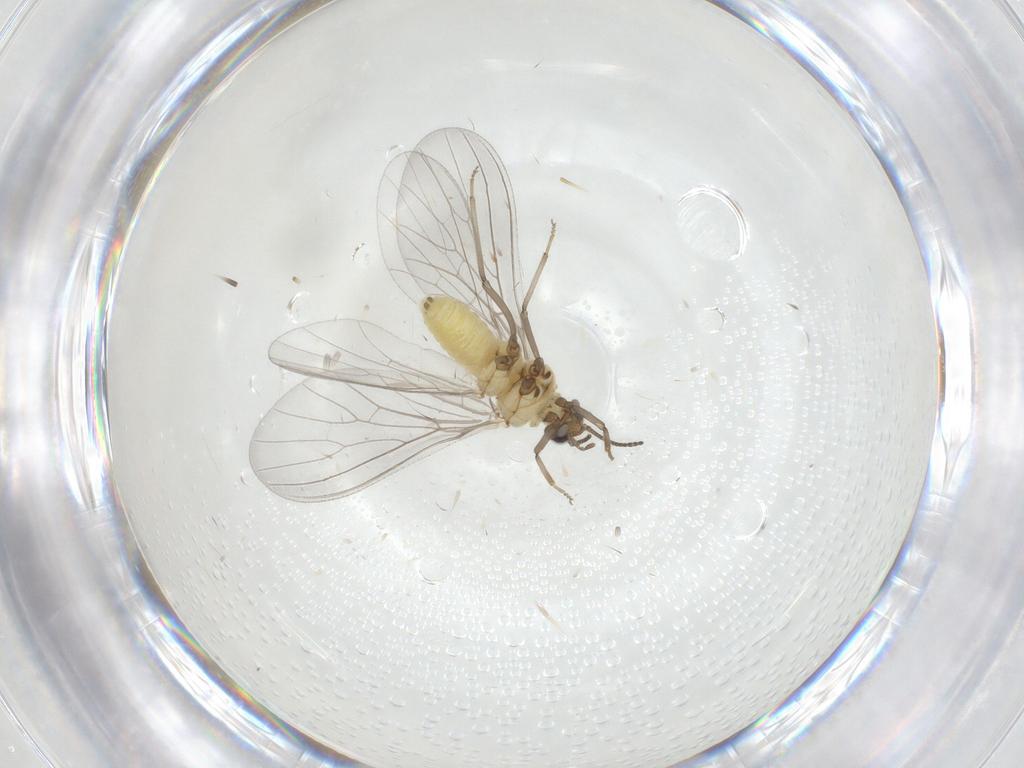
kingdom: Animalia
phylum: Arthropoda
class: Insecta
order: Neuroptera
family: Coniopterygidae
